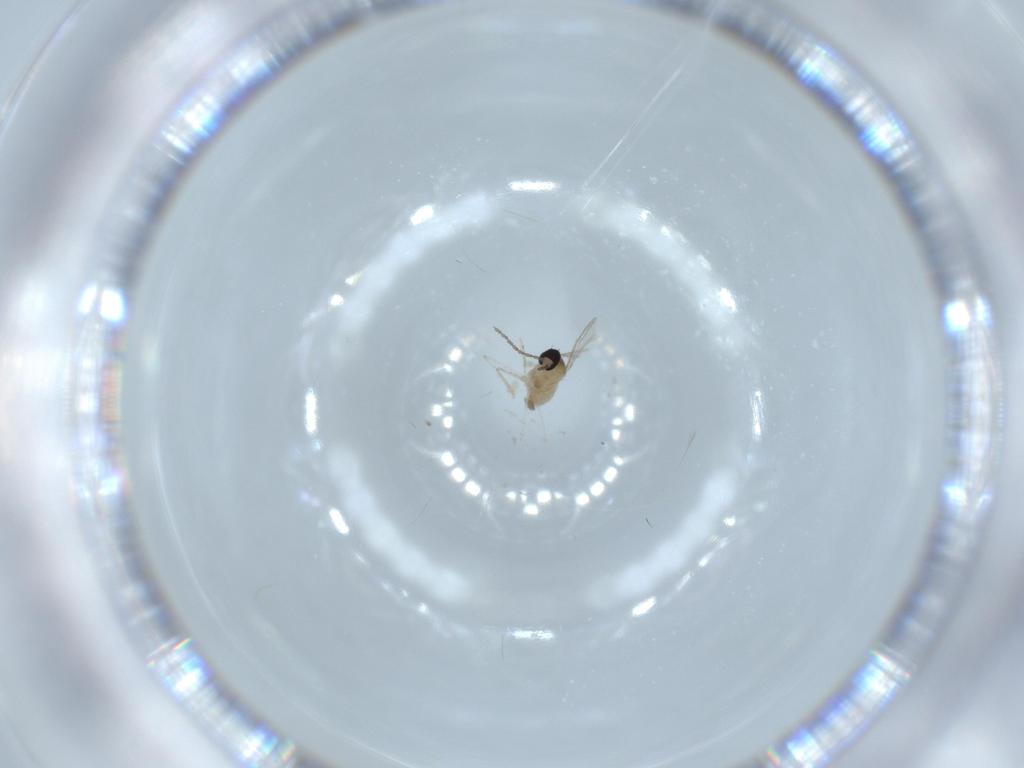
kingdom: Animalia
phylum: Arthropoda
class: Insecta
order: Diptera
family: Cecidomyiidae
